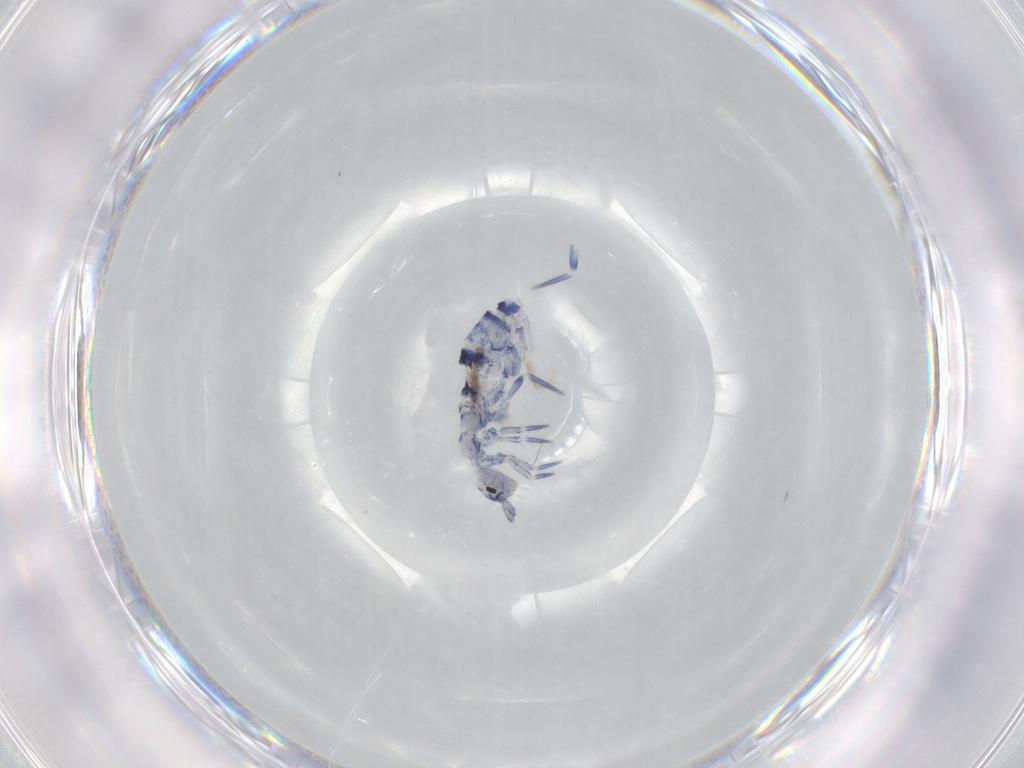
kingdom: Animalia
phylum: Arthropoda
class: Collembola
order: Entomobryomorpha
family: Entomobryidae
